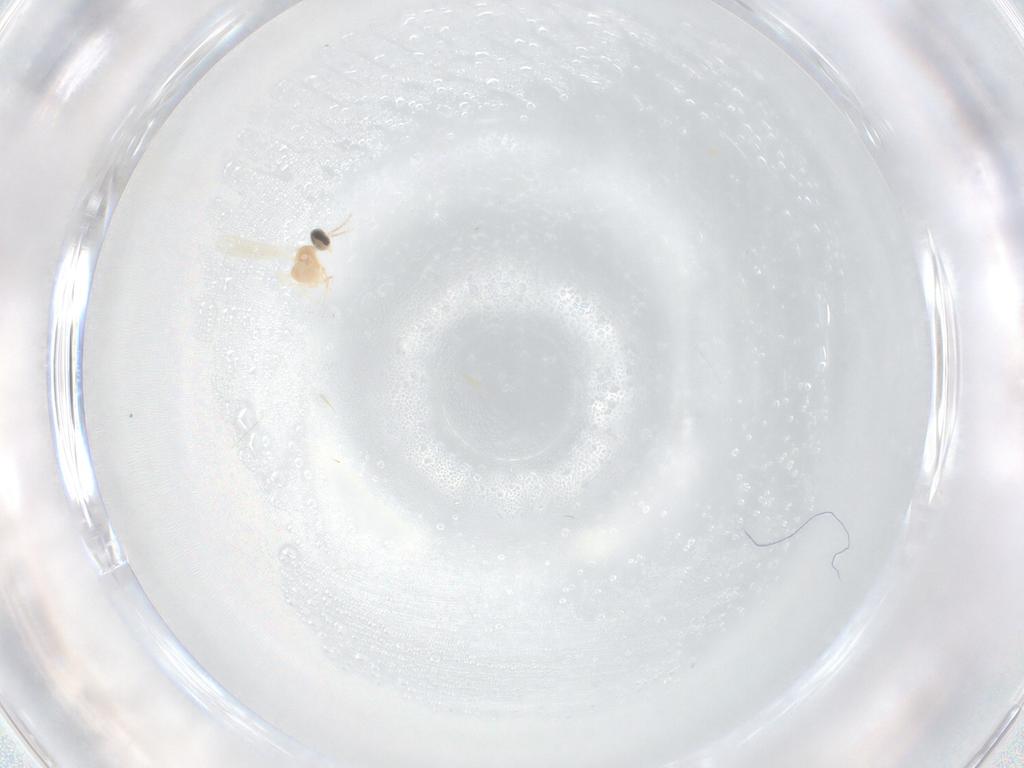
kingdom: Animalia
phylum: Arthropoda
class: Insecta
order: Diptera
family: Cecidomyiidae
